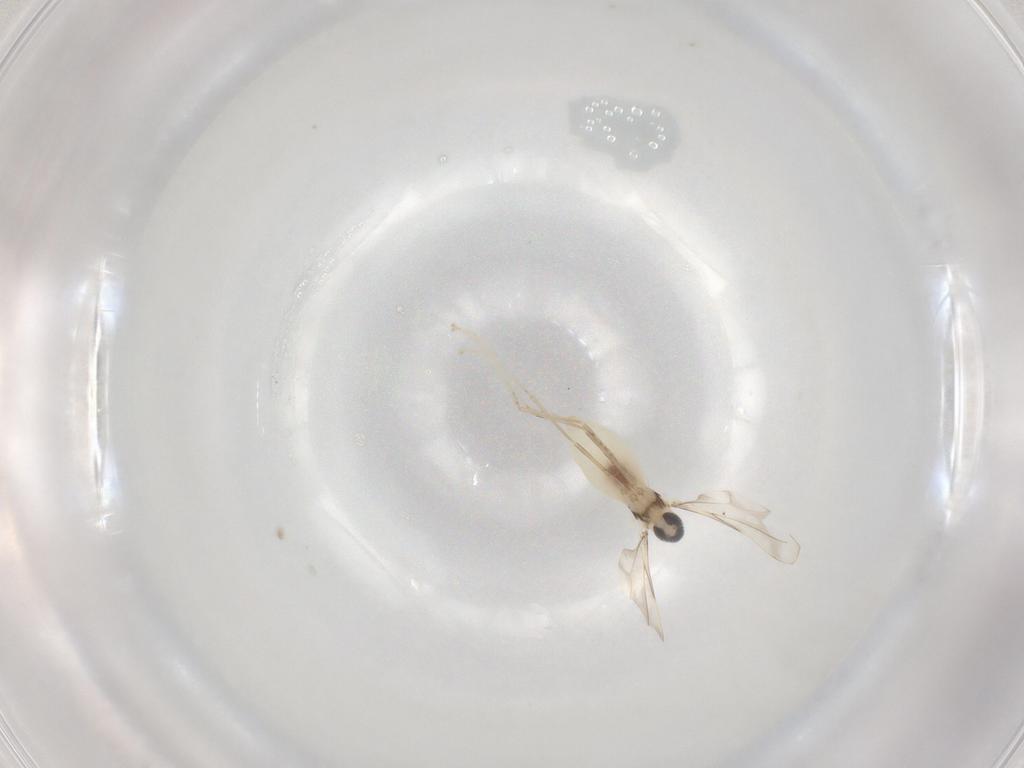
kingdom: Animalia
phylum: Arthropoda
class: Insecta
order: Diptera
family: Cecidomyiidae
